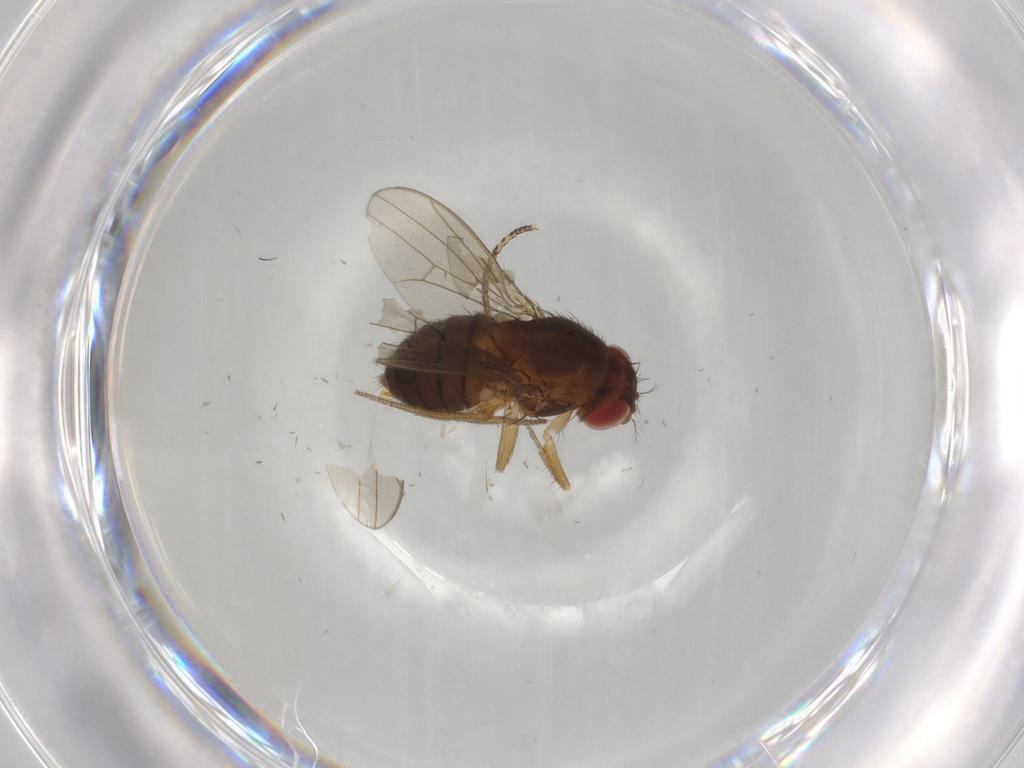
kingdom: Animalia
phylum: Arthropoda
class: Insecta
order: Diptera
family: Drosophilidae
